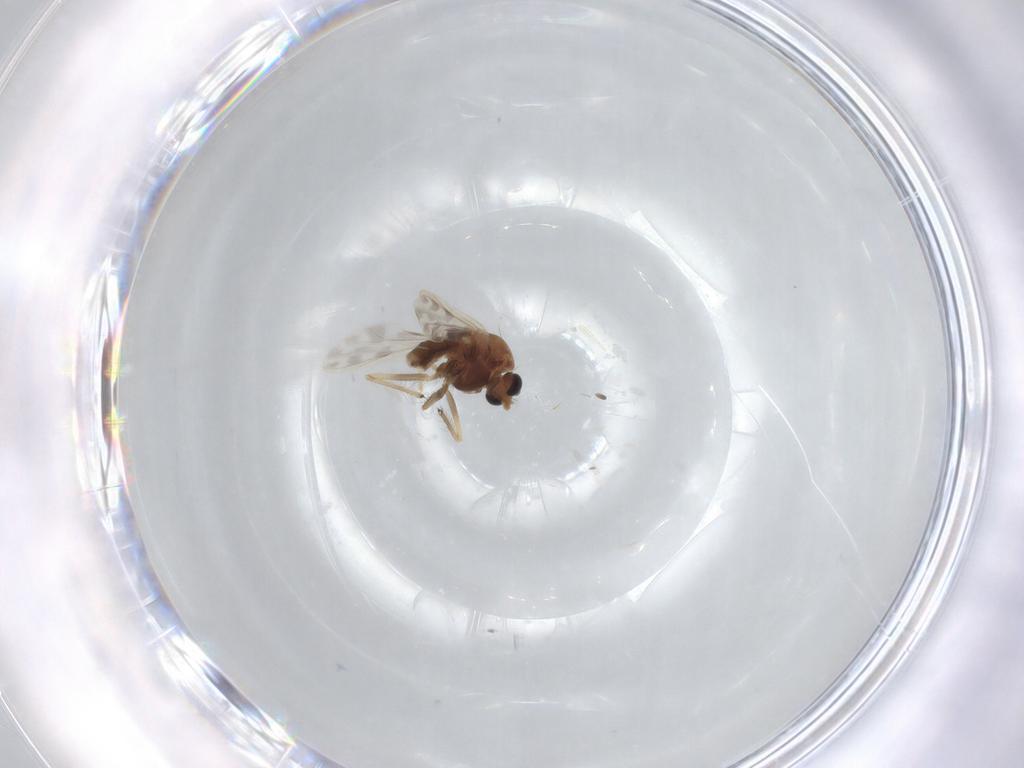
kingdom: Animalia
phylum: Arthropoda
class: Insecta
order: Diptera
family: Chironomidae
